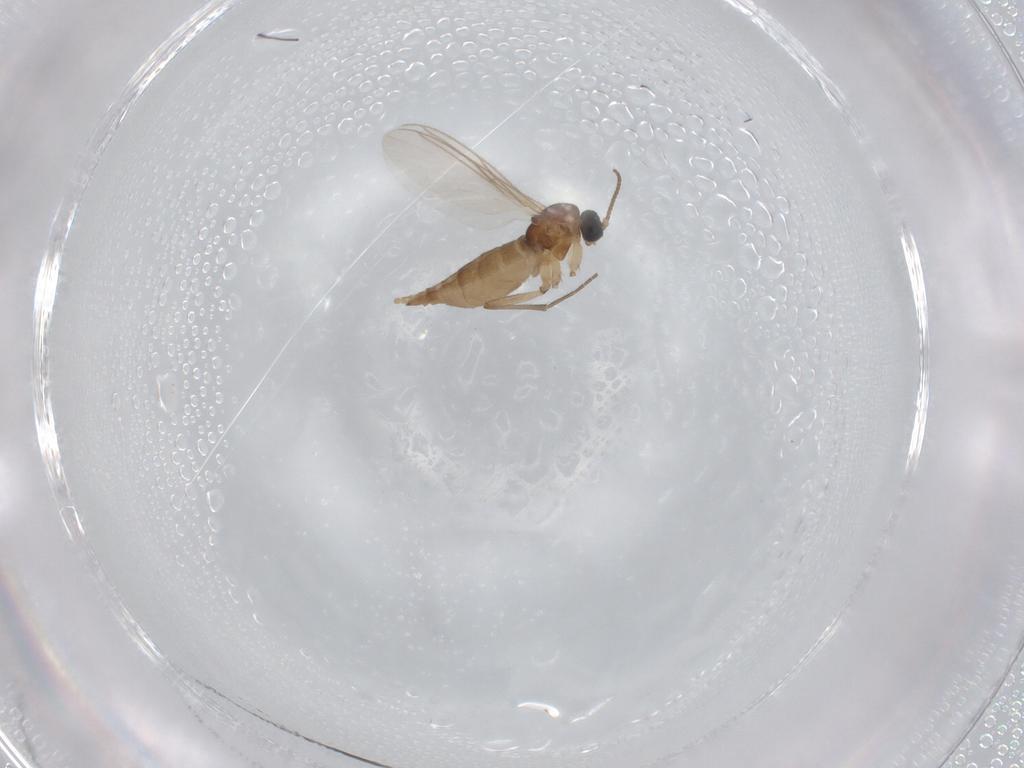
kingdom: Animalia
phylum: Arthropoda
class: Insecta
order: Diptera
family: Sciaridae
